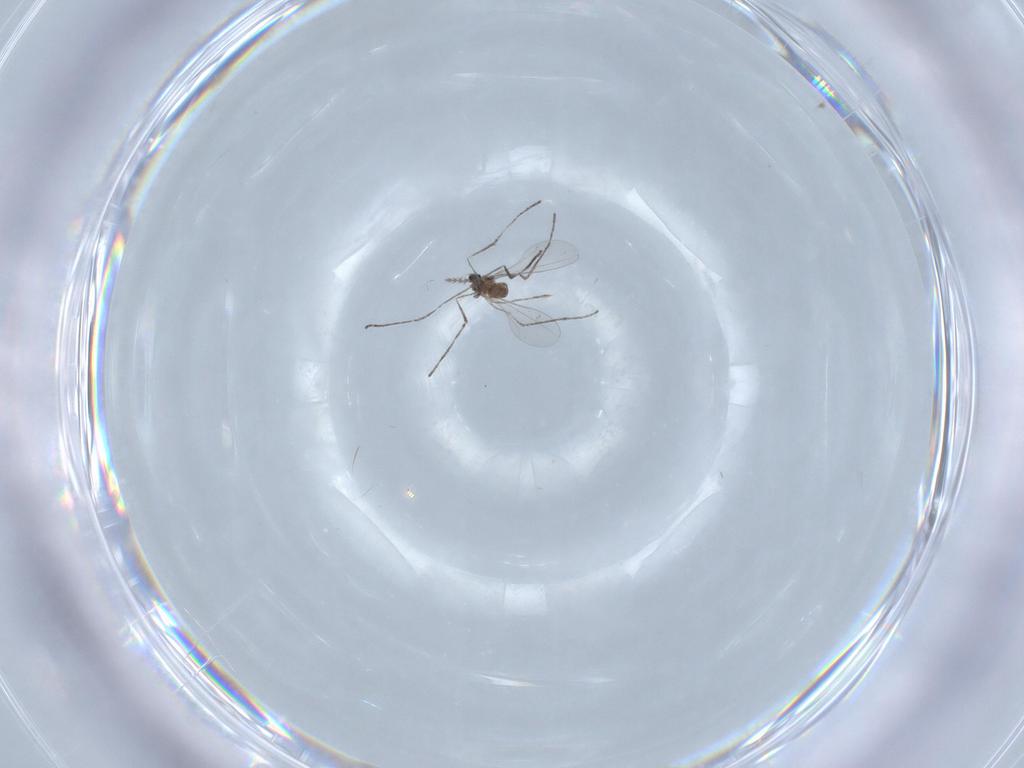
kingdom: Animalia
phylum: Arthropoda
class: Insecta
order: Diptera
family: Cecidomyiidae
